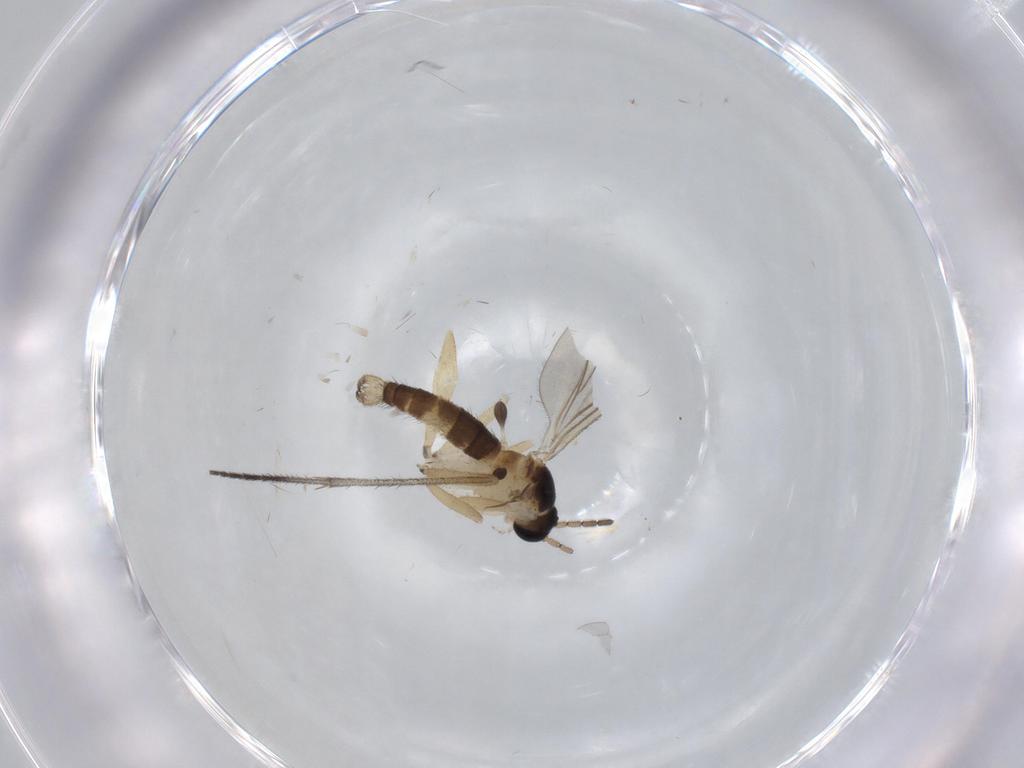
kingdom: Animalia
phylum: Arthropoda
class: Insecta
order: Diptera
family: Sciaridae
